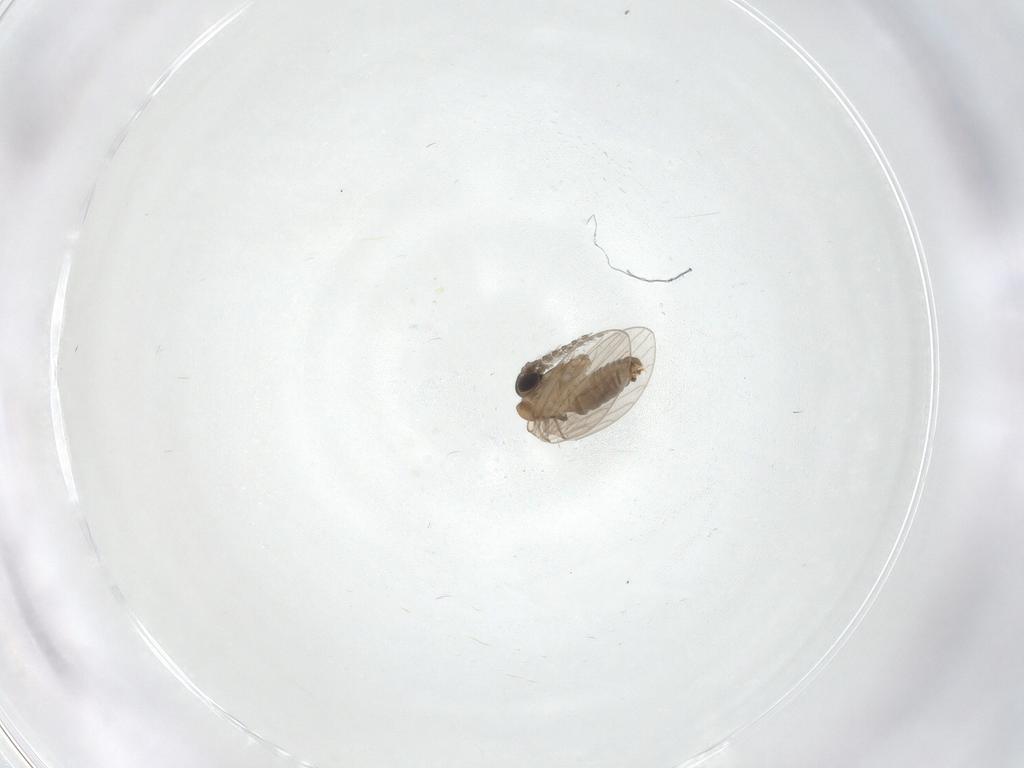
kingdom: Animalia
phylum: Arthropoda
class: Insecta
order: Diptera
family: Psychodidae
